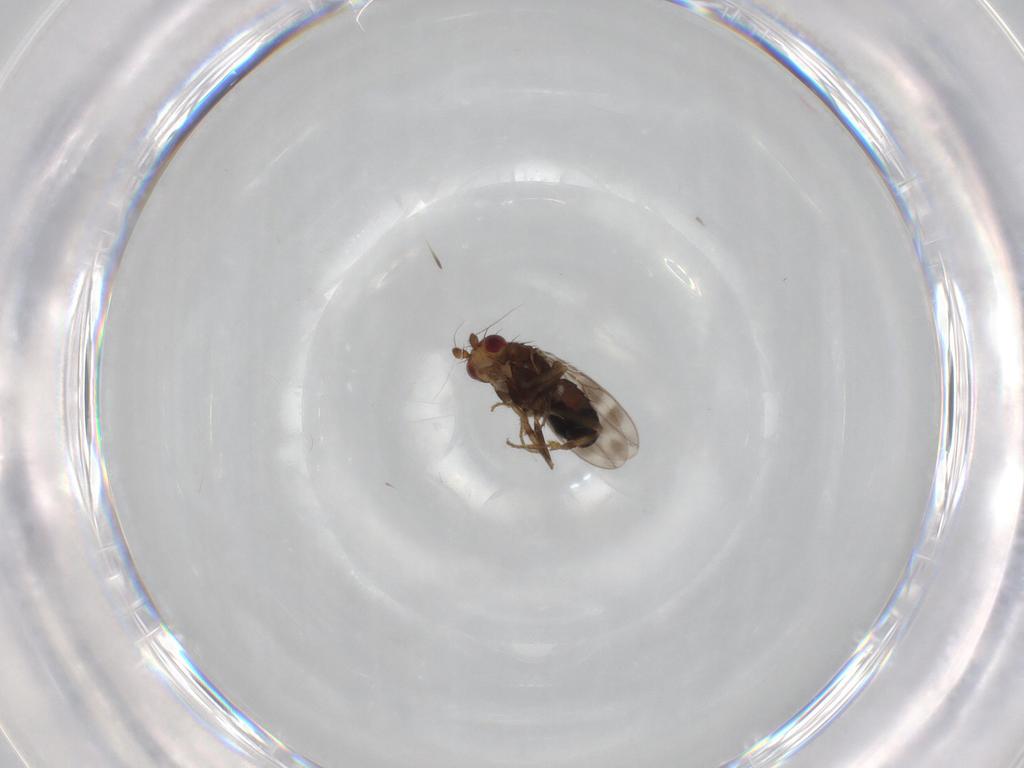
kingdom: Animalia
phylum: Arthropoda
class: Insecta
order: Diptera
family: Sphaeroceridae
